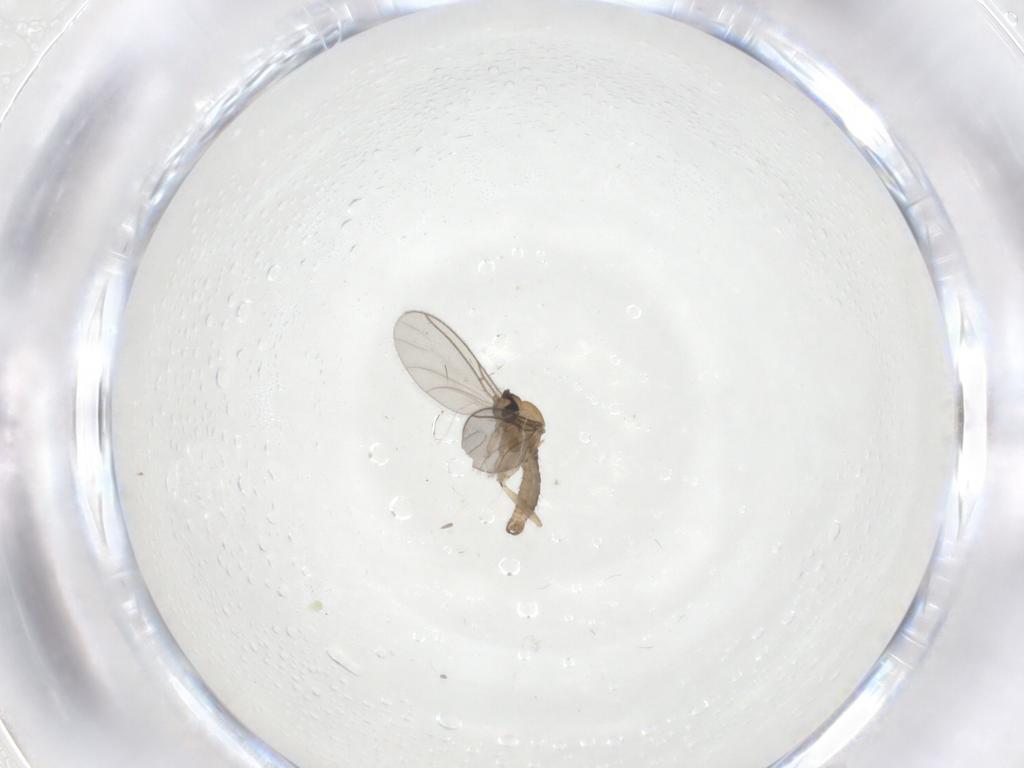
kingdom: Animalia
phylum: Arthropoda
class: Insecta
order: Diptera
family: Sciaridae
